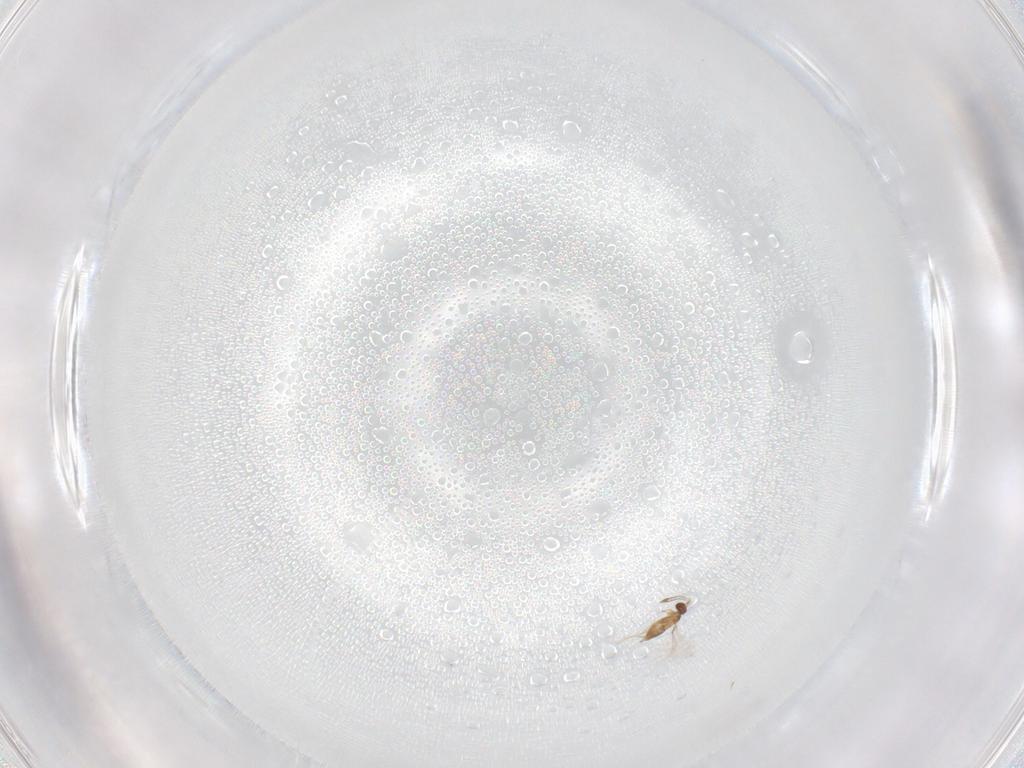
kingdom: Animalia
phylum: Arthropoda
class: Insecta
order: Hymenoptera
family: Mymaridae
